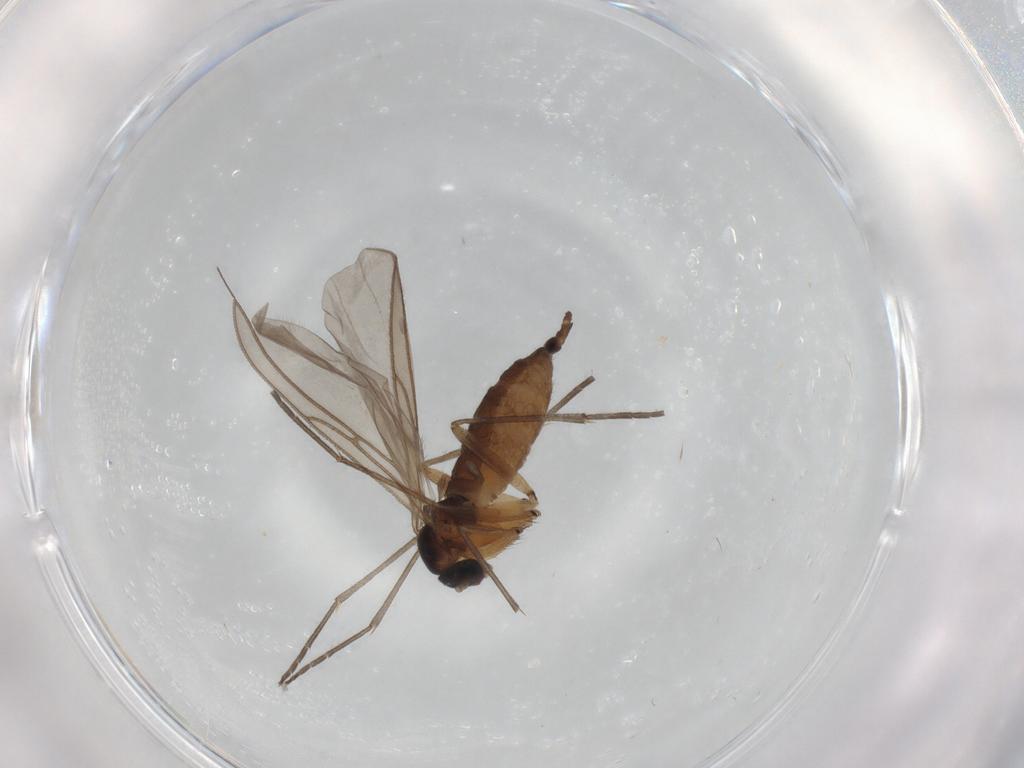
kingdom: Animalia
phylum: Arthropoda
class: Insecta
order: Diptera
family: Sciaridae
